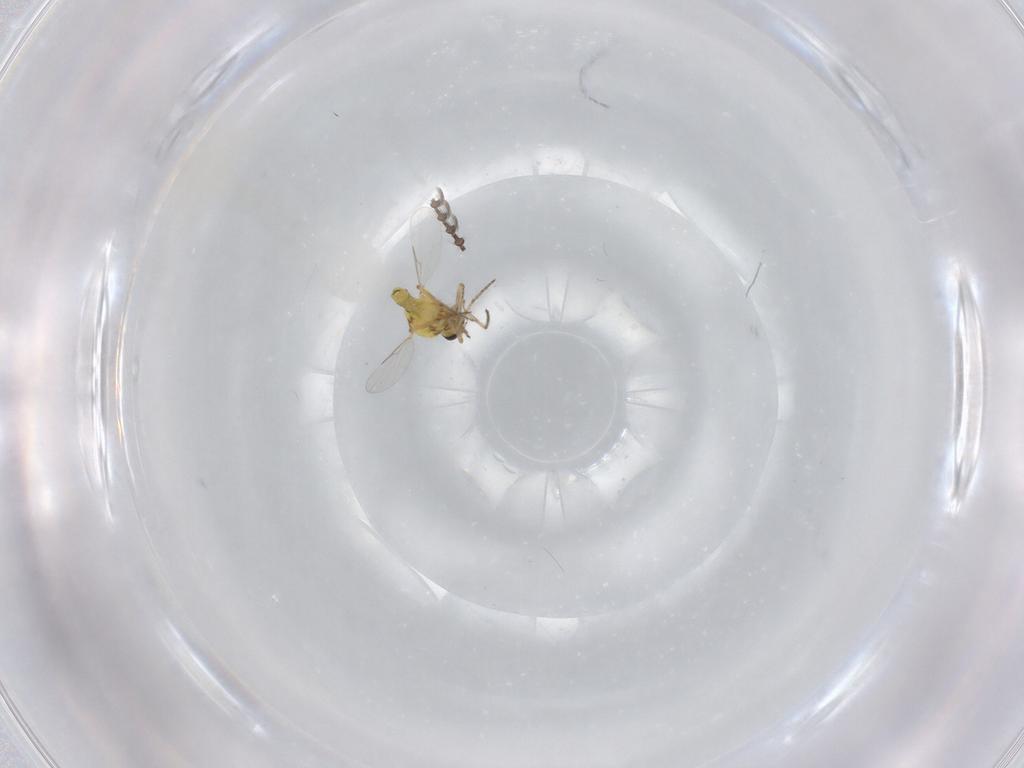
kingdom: Animalia
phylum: Arthropoda
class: Insecta
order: Diptera
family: Ceratopogonidae
